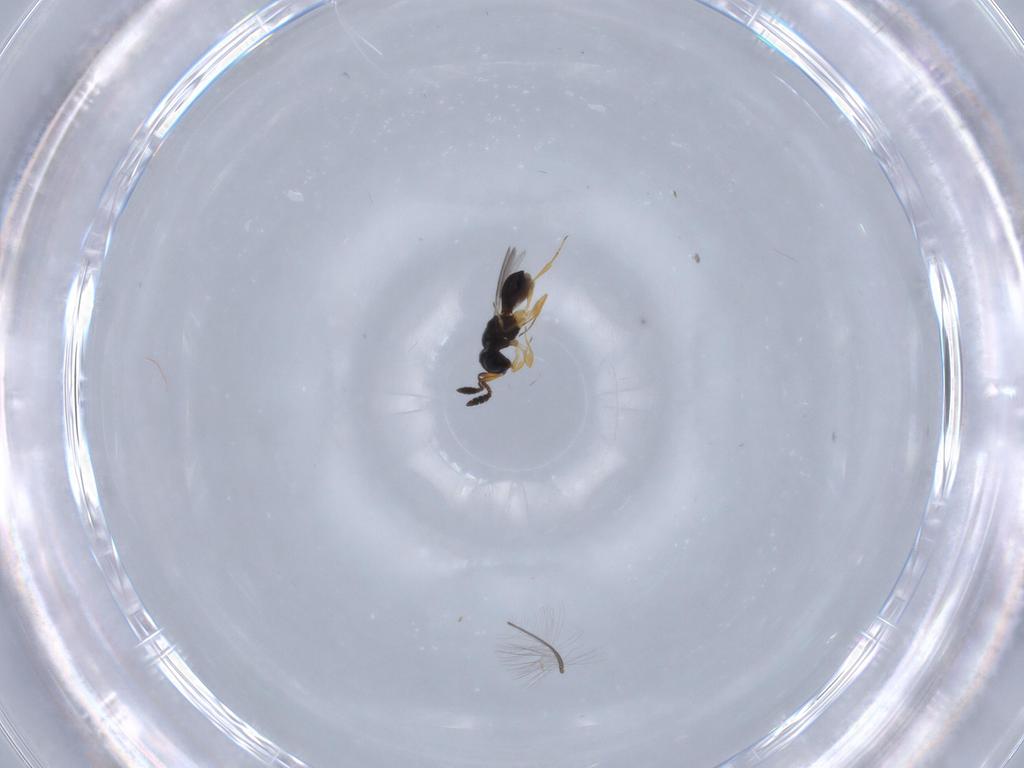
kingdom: Animalia
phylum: Arthropoda
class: Insecta
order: Hymenoptera
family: Scelionidae
